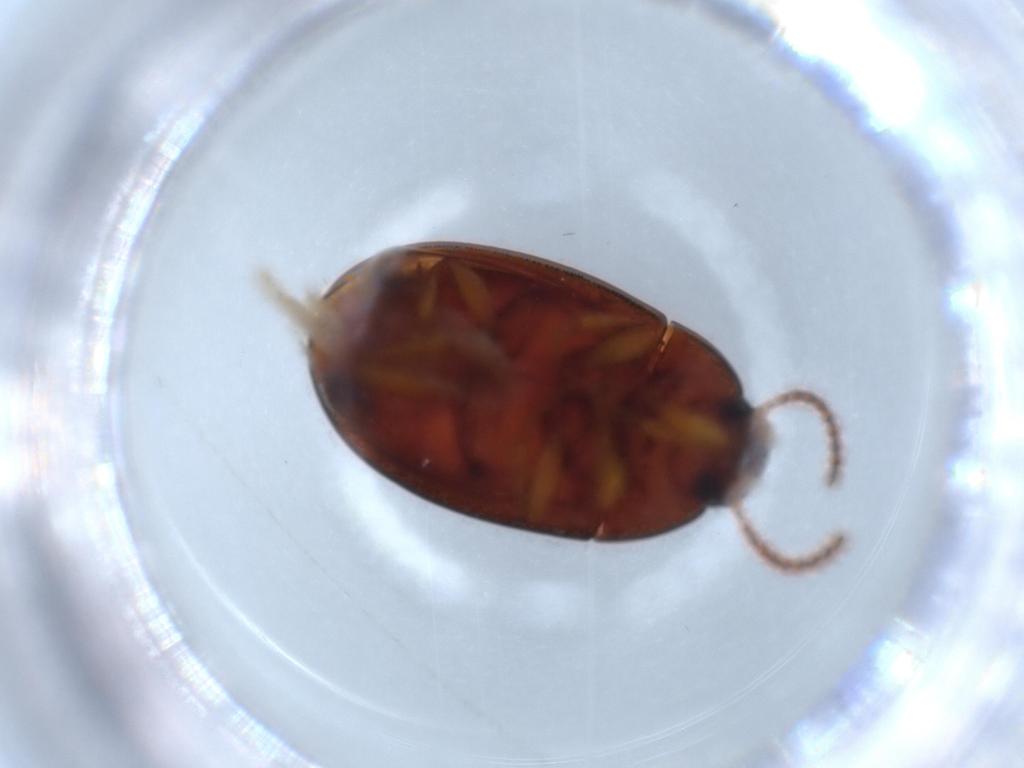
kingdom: Animalia
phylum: Arthropoda
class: Insecta
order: Coleoptera
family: Tenebrionidae
